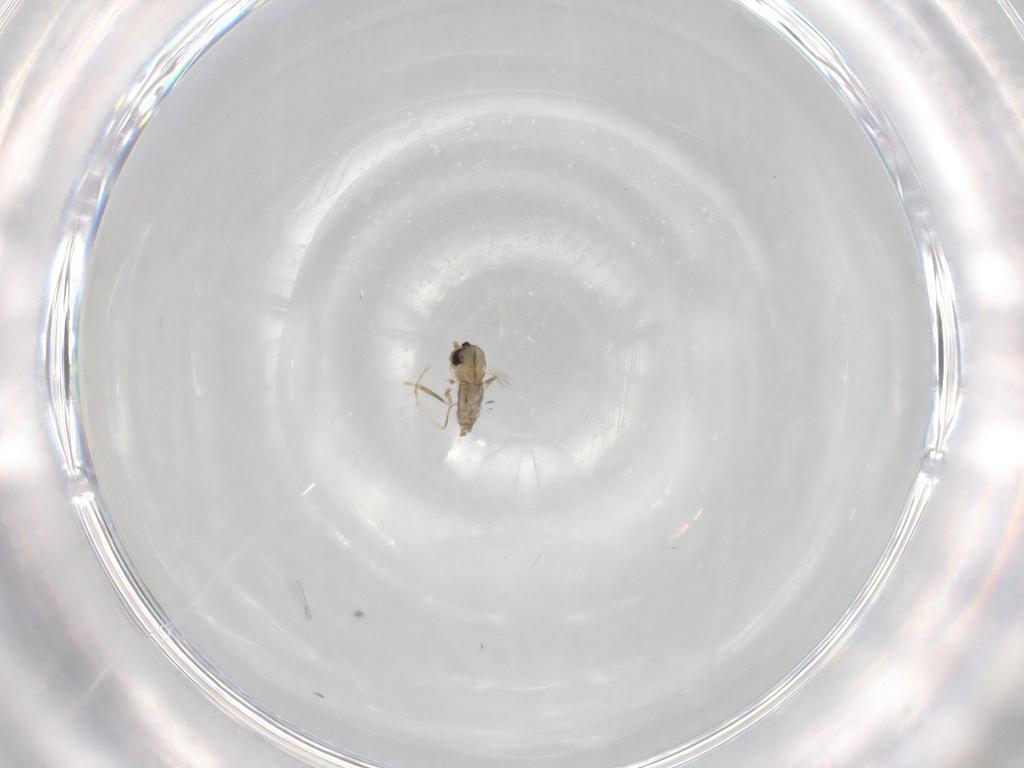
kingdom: Animalia
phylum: Arthropoda
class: Insecta
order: Diptera
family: Cecidomyiidae
